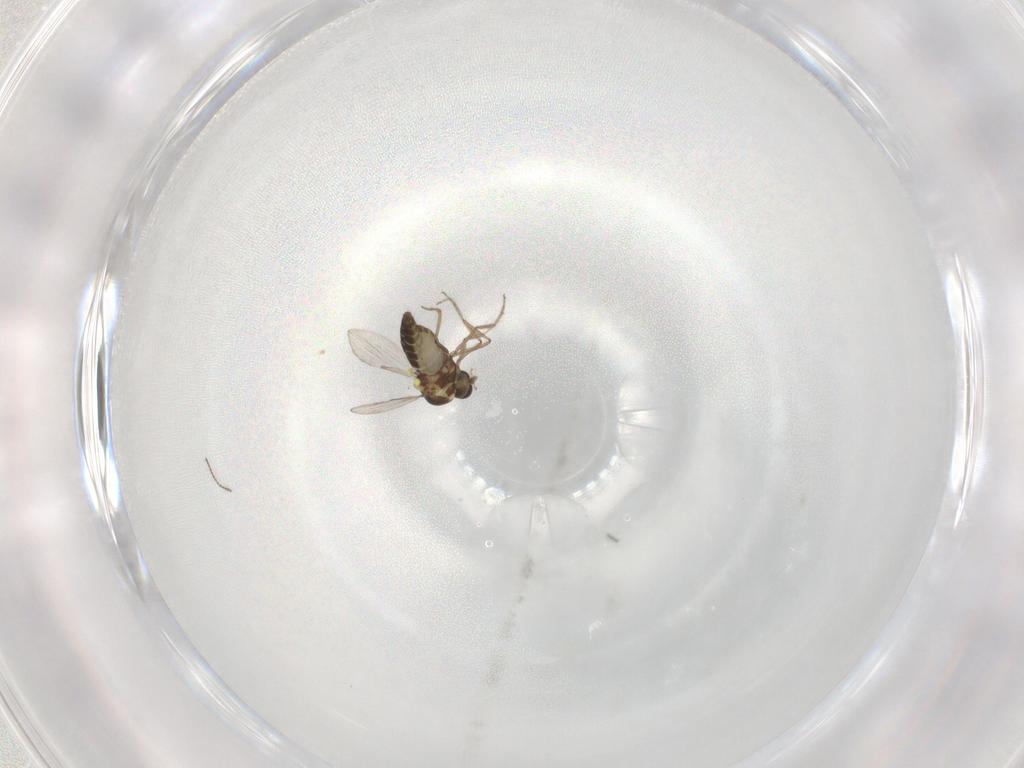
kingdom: Animalia
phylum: Arthropoda
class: Insecta
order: Diptera
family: Ceratopogonidae
